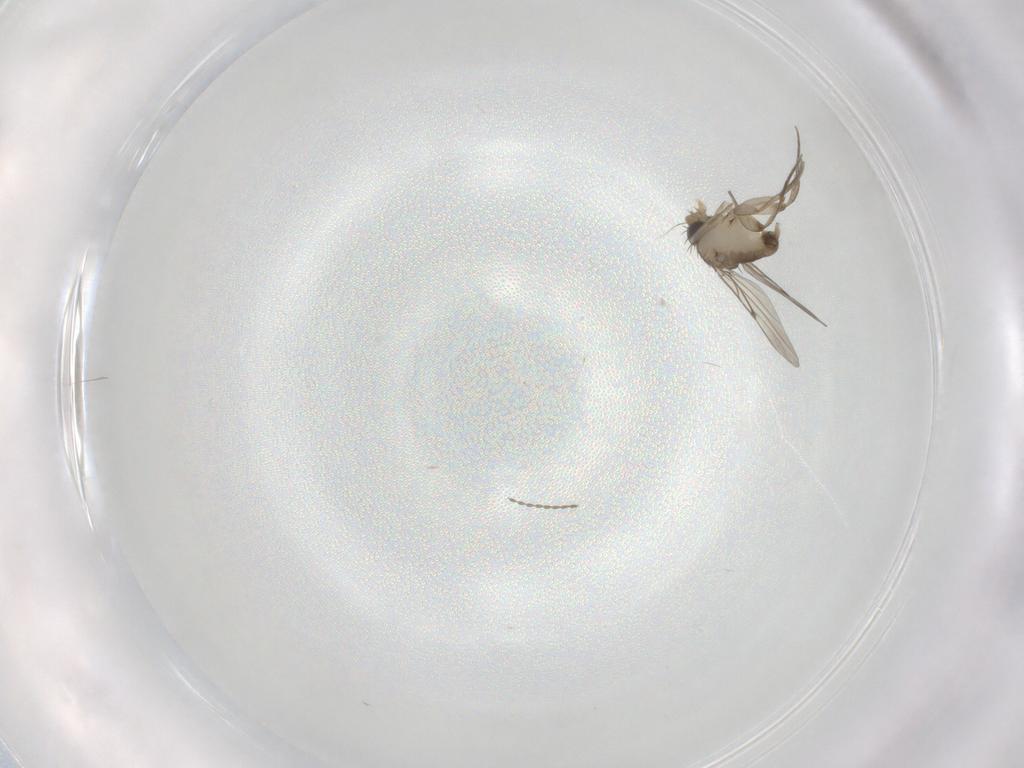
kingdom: Animalia
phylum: Arthropoda
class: Insecta
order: Diptera
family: Phoridae
